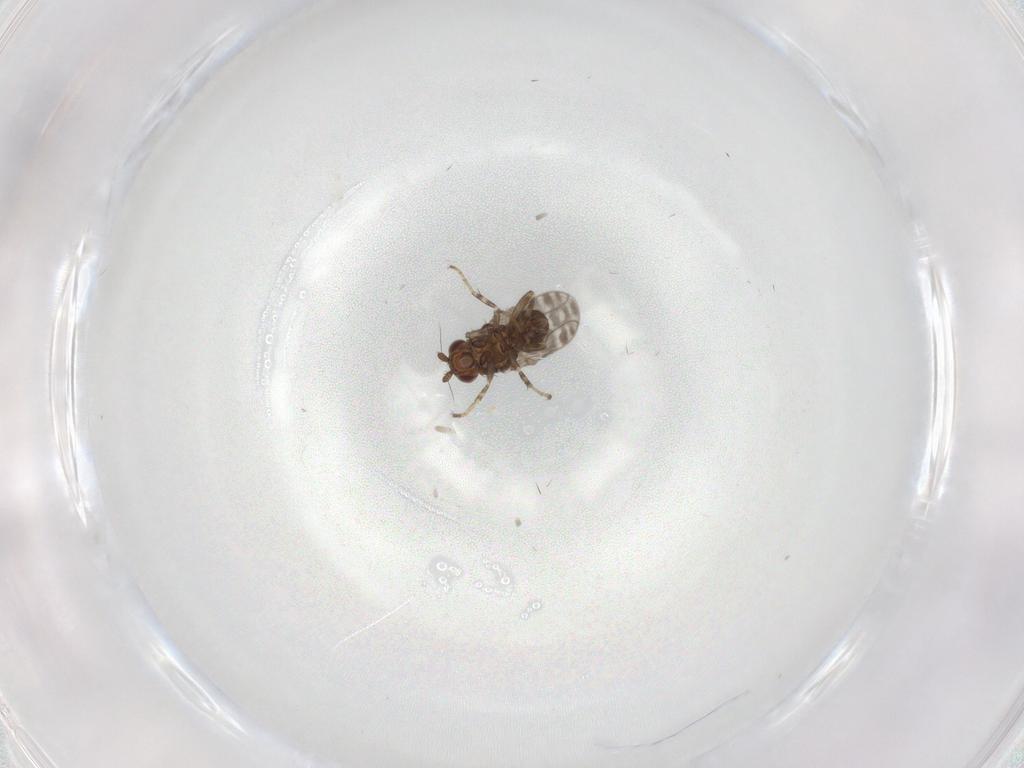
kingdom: Animalia
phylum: Arthropoda
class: Insecta
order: Diptera
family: Sphaeroceridae
